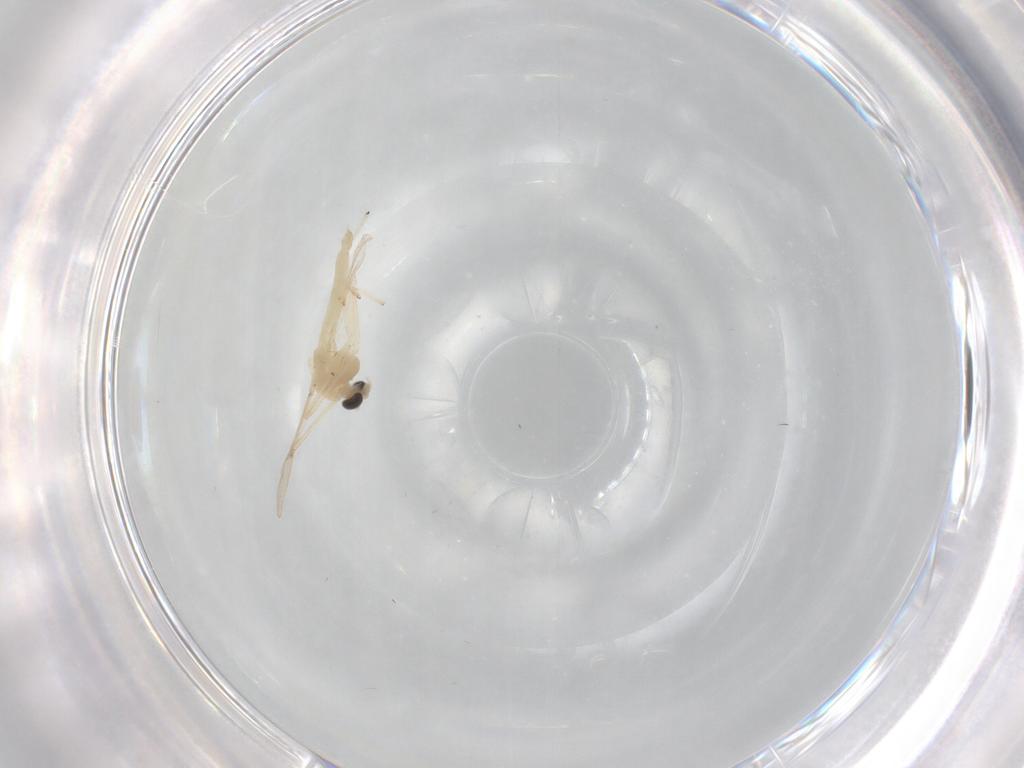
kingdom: Animalia
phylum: Arthropoda
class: Insecta
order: Diptera
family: Chironomidae
